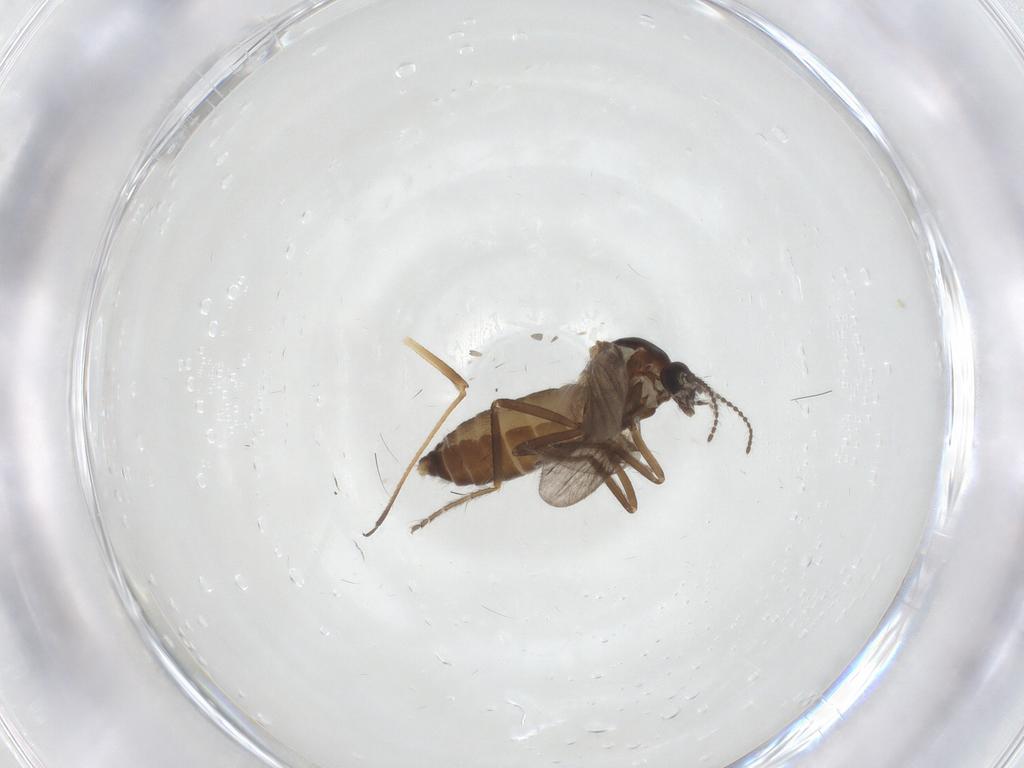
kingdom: Animalia
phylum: Arthropoda
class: Insecta
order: Diptera
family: Ceratopogonidae
